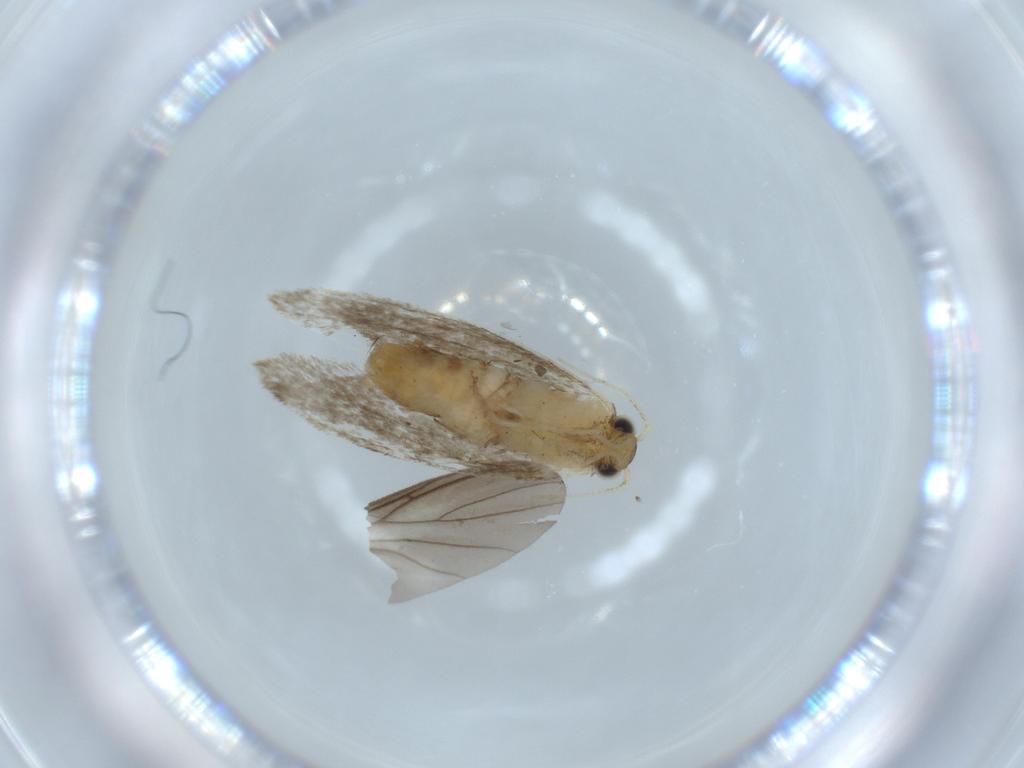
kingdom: Animalia
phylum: Arthropoda
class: Insecta
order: Lepidoptera
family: Tineidae
